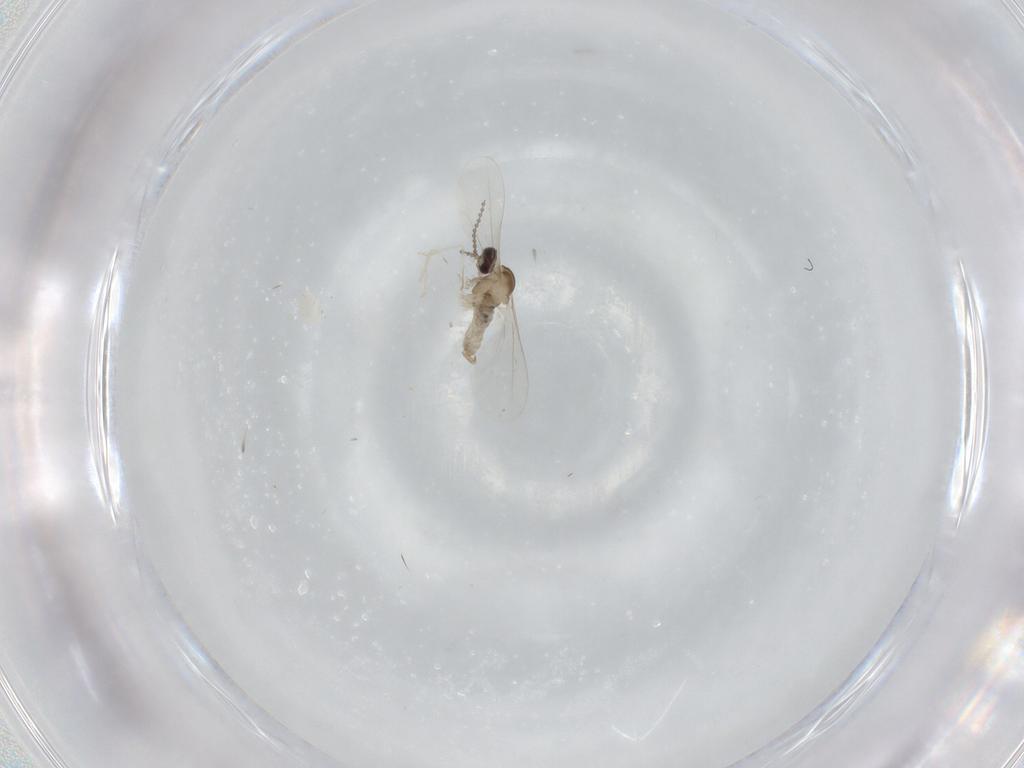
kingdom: Animalia
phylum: Arthropoda
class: Insecta
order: Diptera
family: Cecidomyiidae
